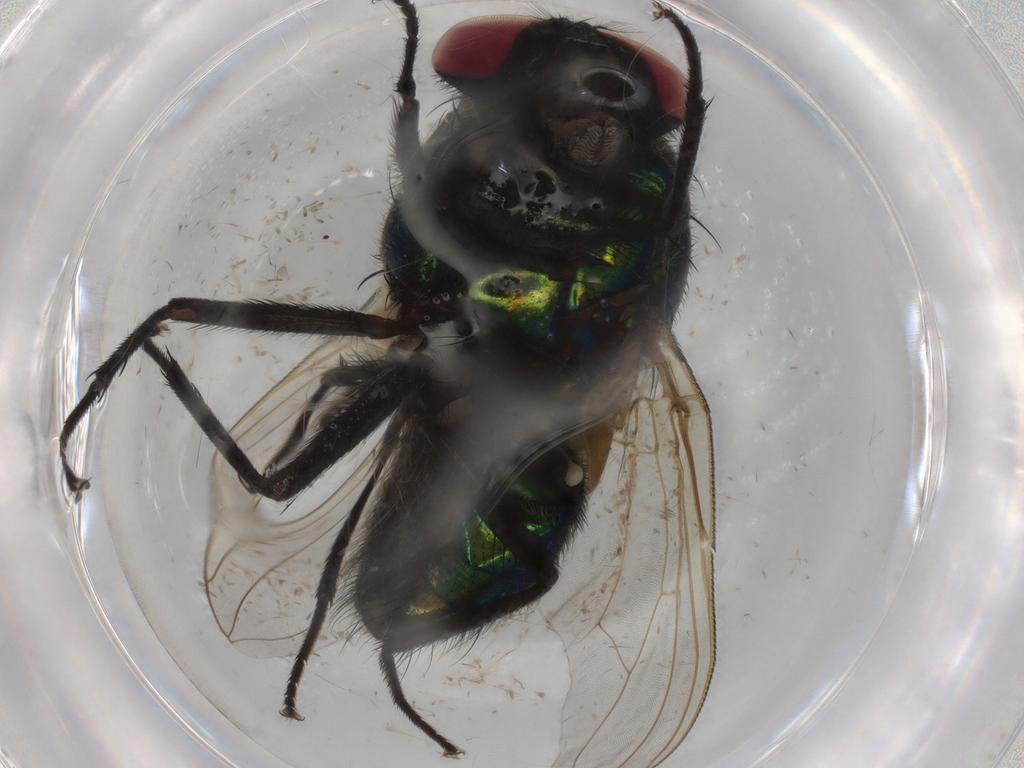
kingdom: Animalia
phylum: Arthropoda
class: Insecta
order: Diptera
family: Muscidae
